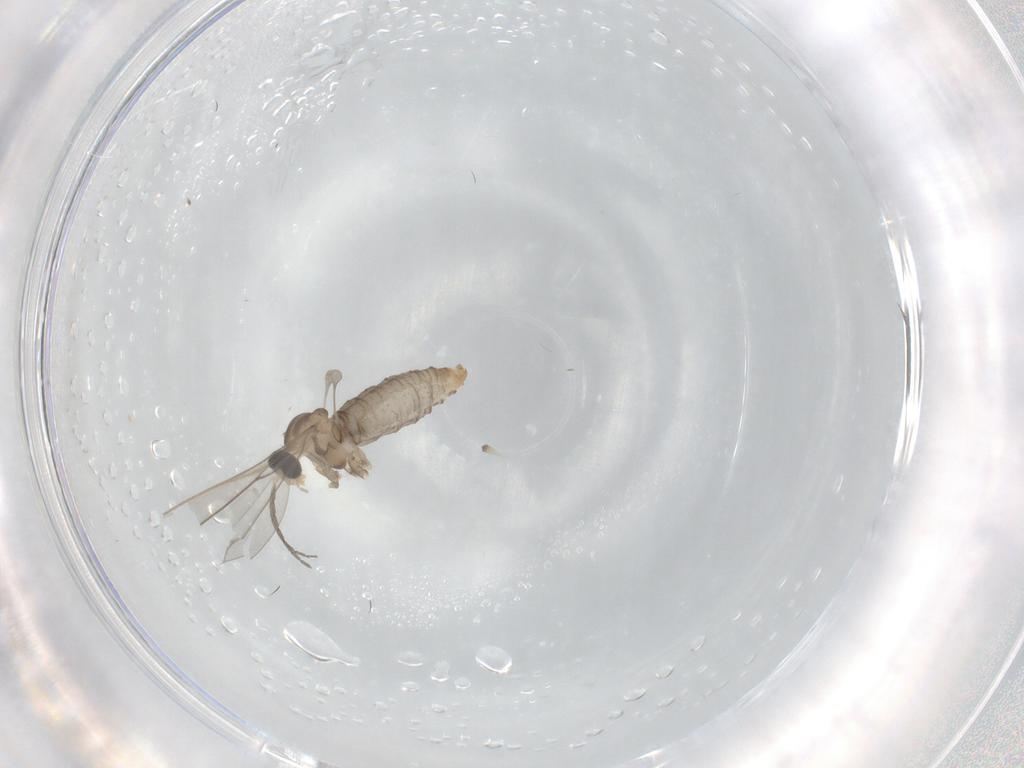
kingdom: Animalia
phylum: Arthropoda
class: Insecta
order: Diptera
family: Cecidomyiidae
